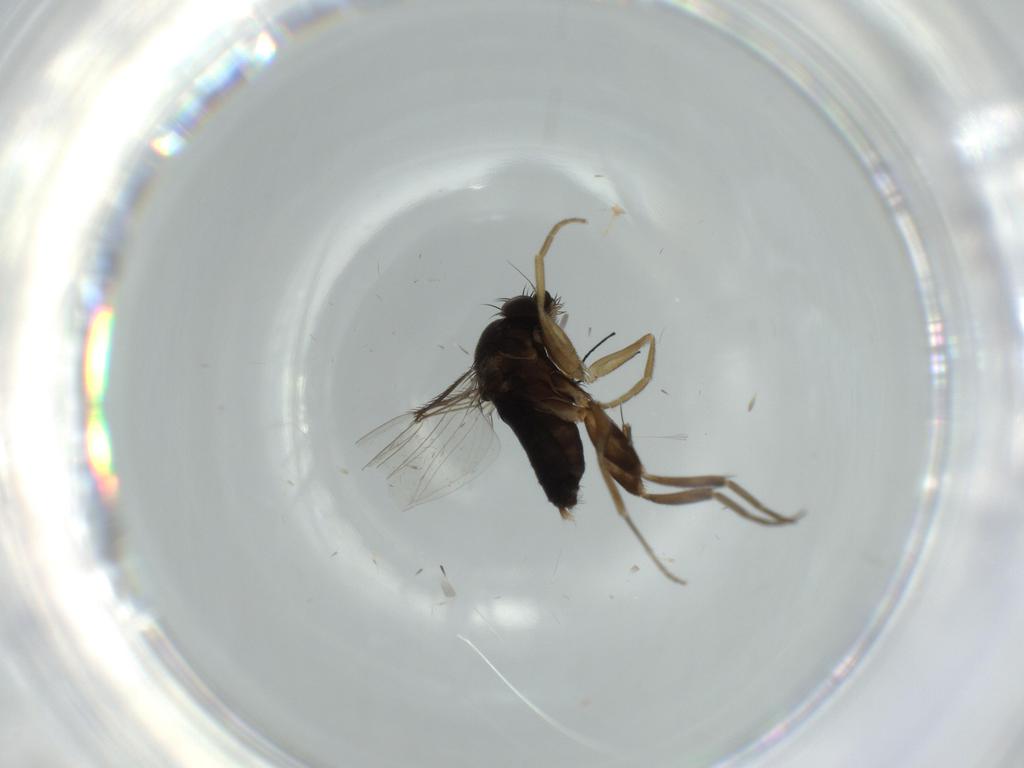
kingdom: Animalia
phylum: Arthropoda
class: Insecta
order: Diptera
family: Phoridae
